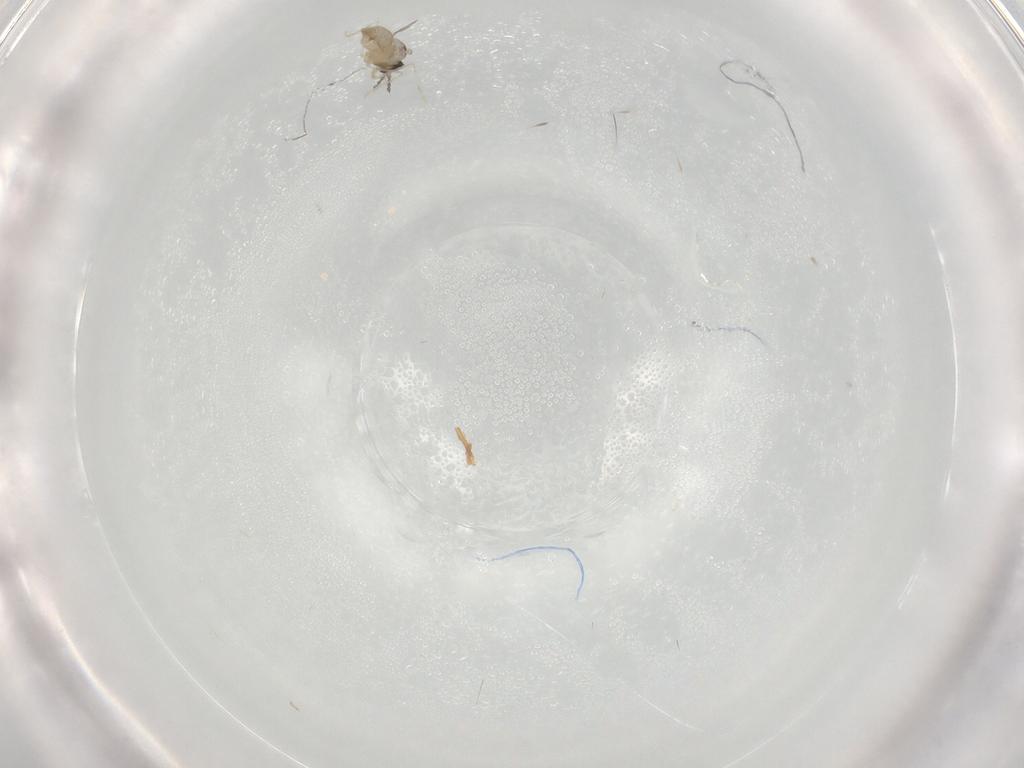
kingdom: Animalia
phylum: Arthropoda
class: Insecta
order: Diptera
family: Cecidomyiidae
